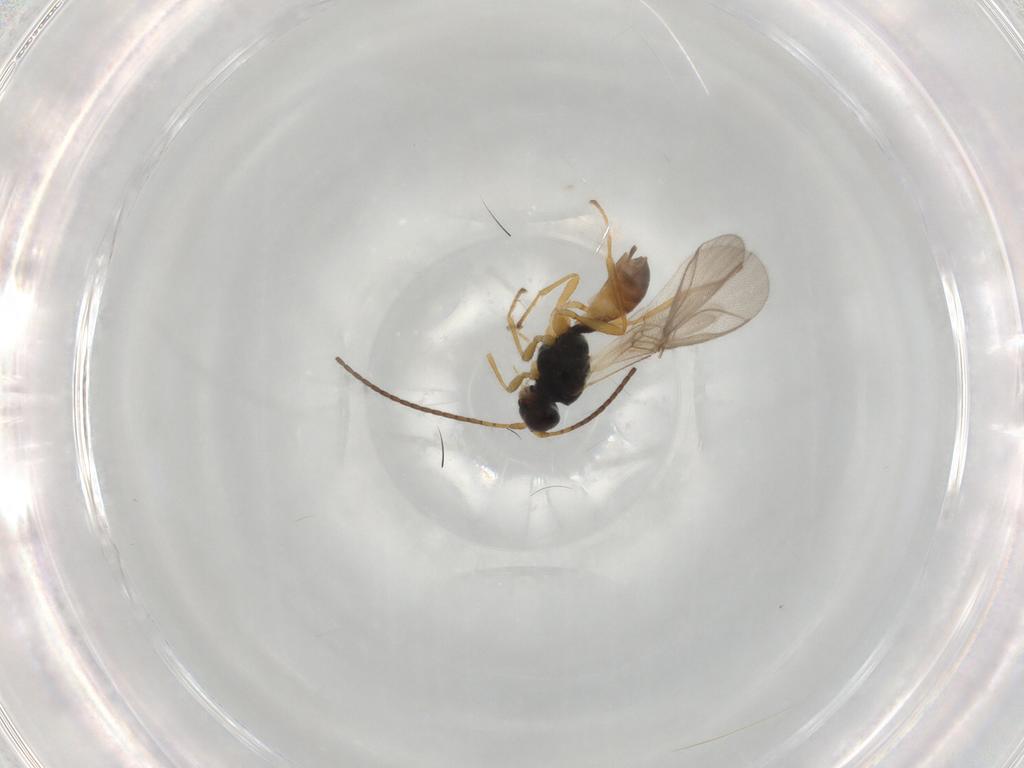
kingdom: Animalia
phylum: Arthropoda
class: Insecta
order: Hymenoptera
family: Braconidae
